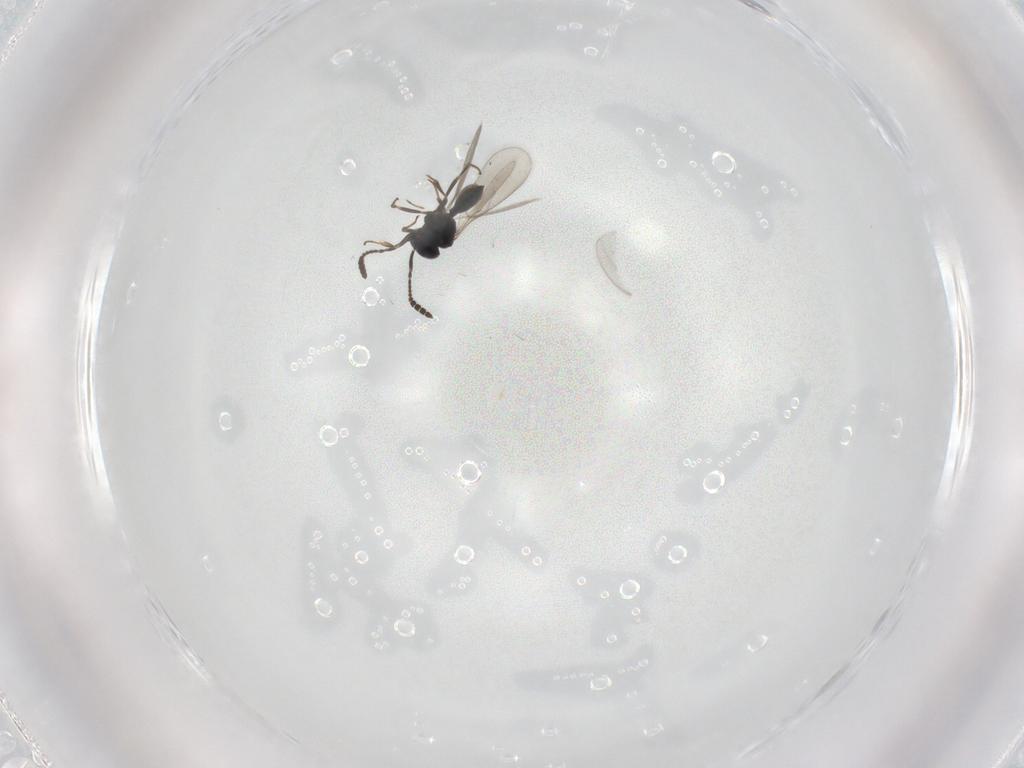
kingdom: Animalia
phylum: Arthropoda
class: Insecta
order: Hymenoptera
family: Scelionidae
